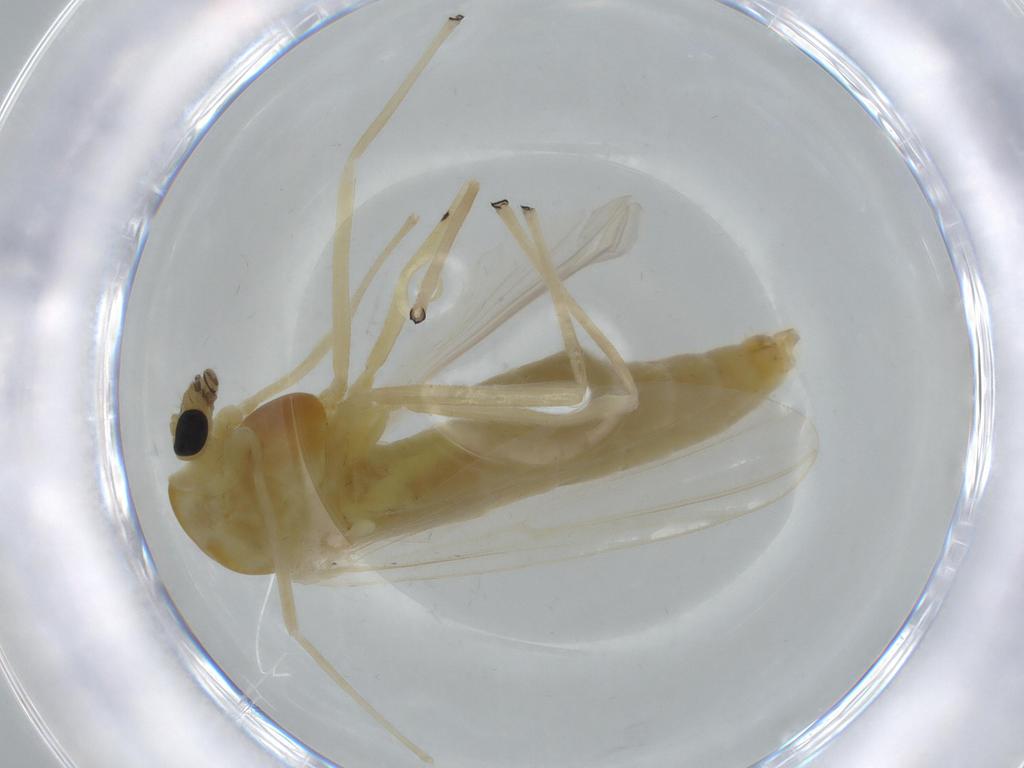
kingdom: Animalia
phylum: Arthropoda
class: Insecta
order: Diptera
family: Chironomidae
